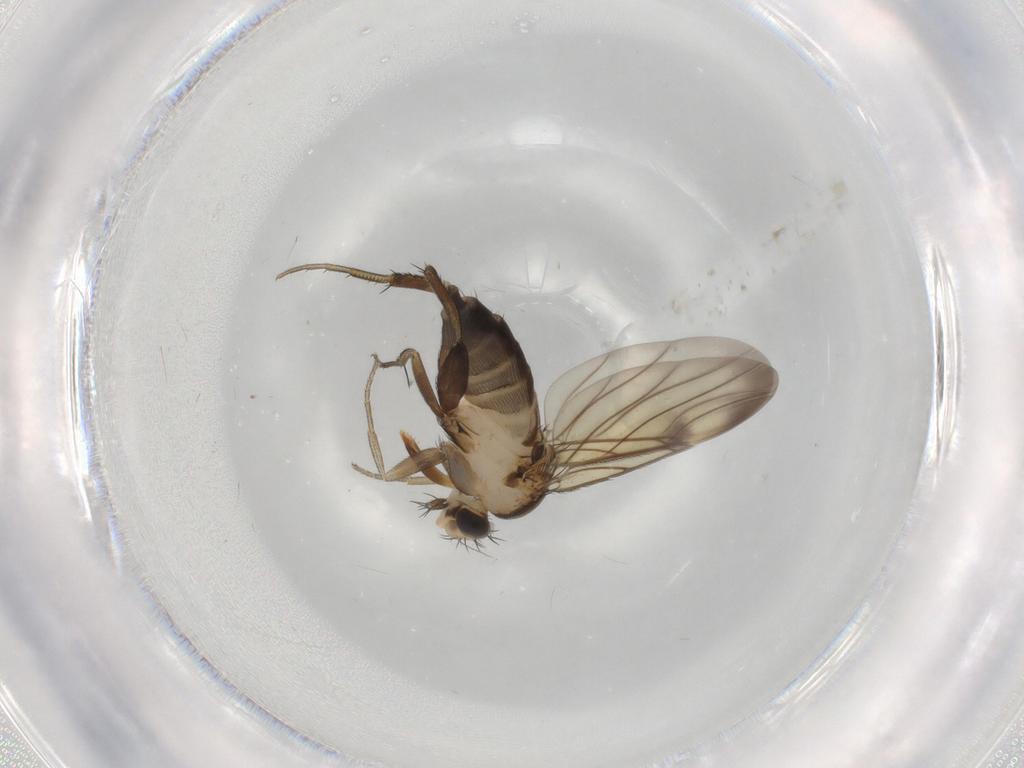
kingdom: Animalia
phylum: Arthropoda
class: Insecta
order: Diptera
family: Phoridae
